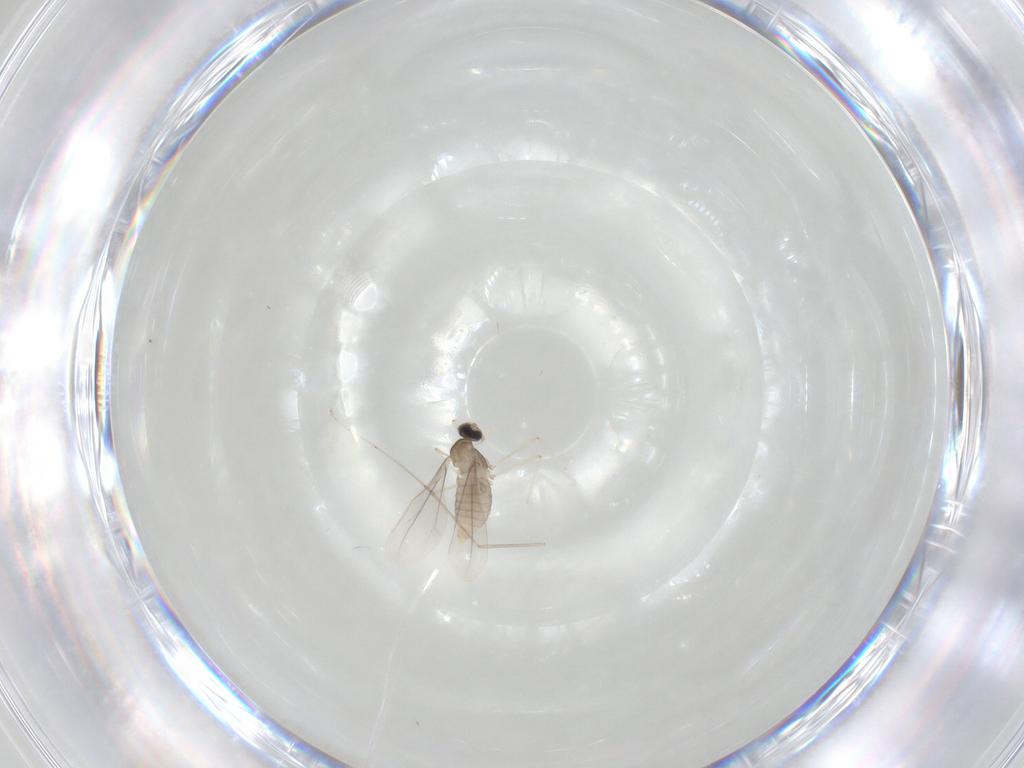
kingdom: Animalia
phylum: Arthropoda
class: Insecta
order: Diptera
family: Cecidomyiidae
